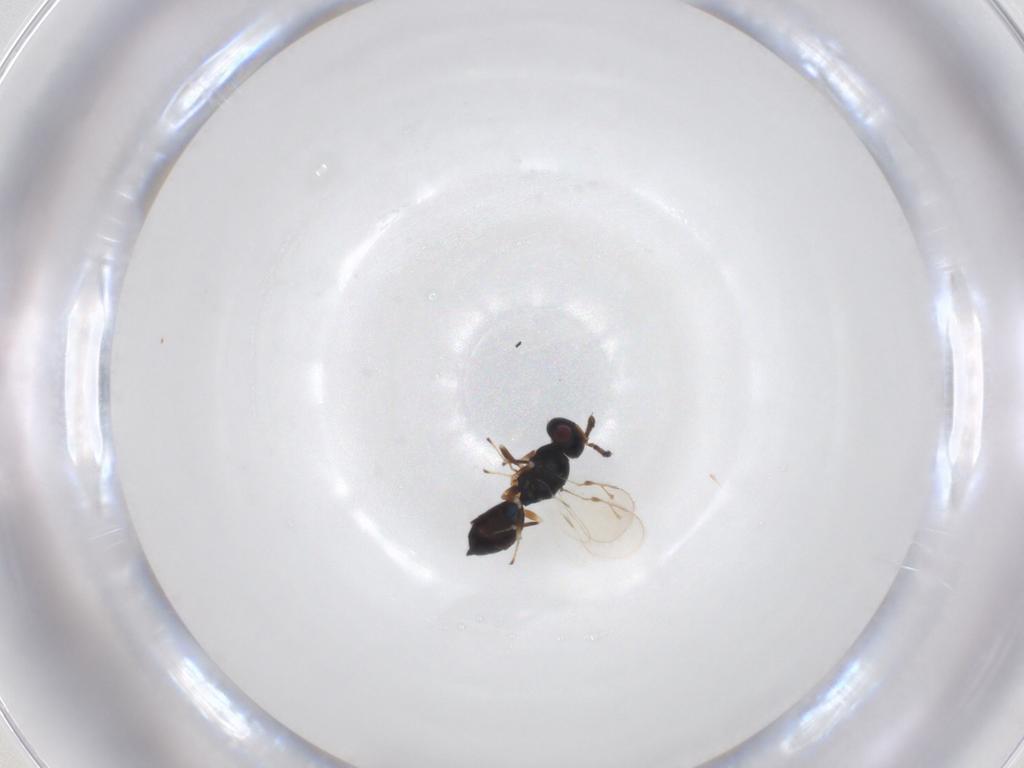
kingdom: Animalia
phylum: Arthropoda
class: Insecta
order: Hymenoptera
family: Pteromalidae
